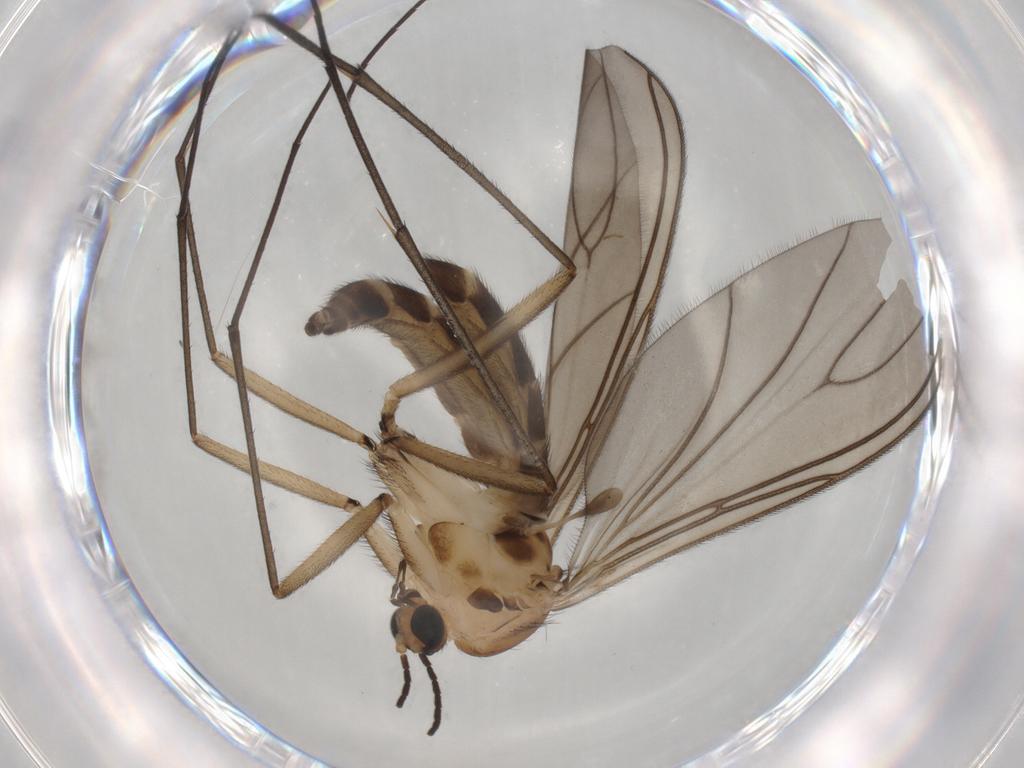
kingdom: Animalia
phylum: Arthropoda
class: Insecta
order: Diptera
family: Sciaridae
